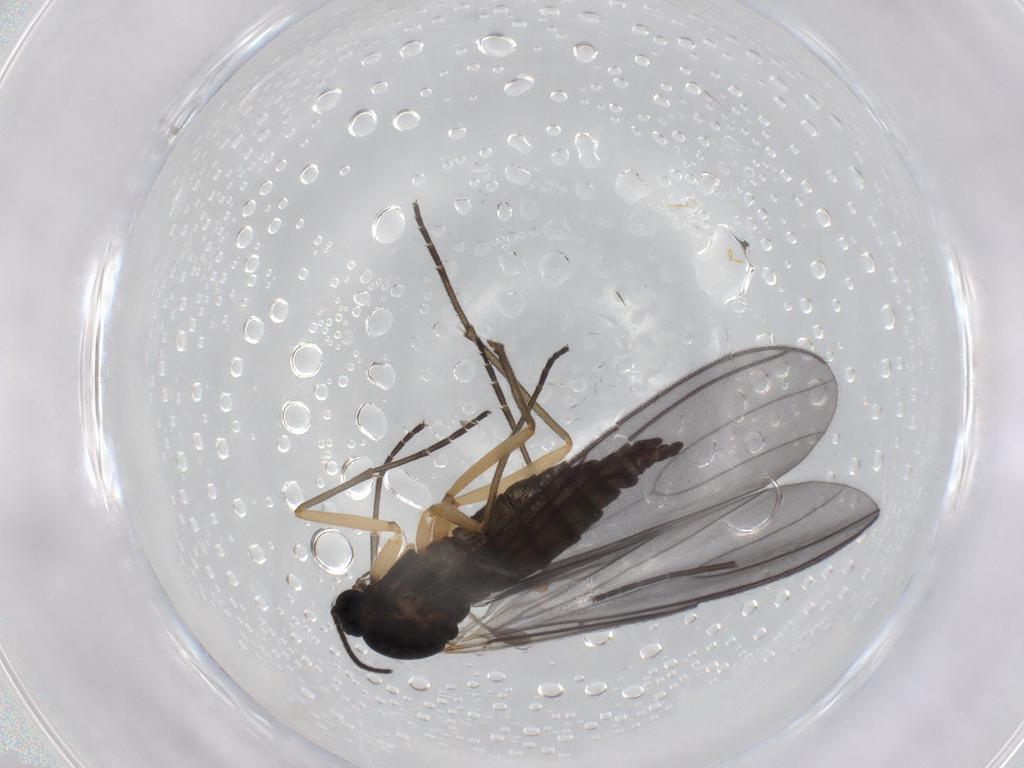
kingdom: Animalia
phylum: Arthropoda
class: Insecta
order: Diptera
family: Sciaridae
